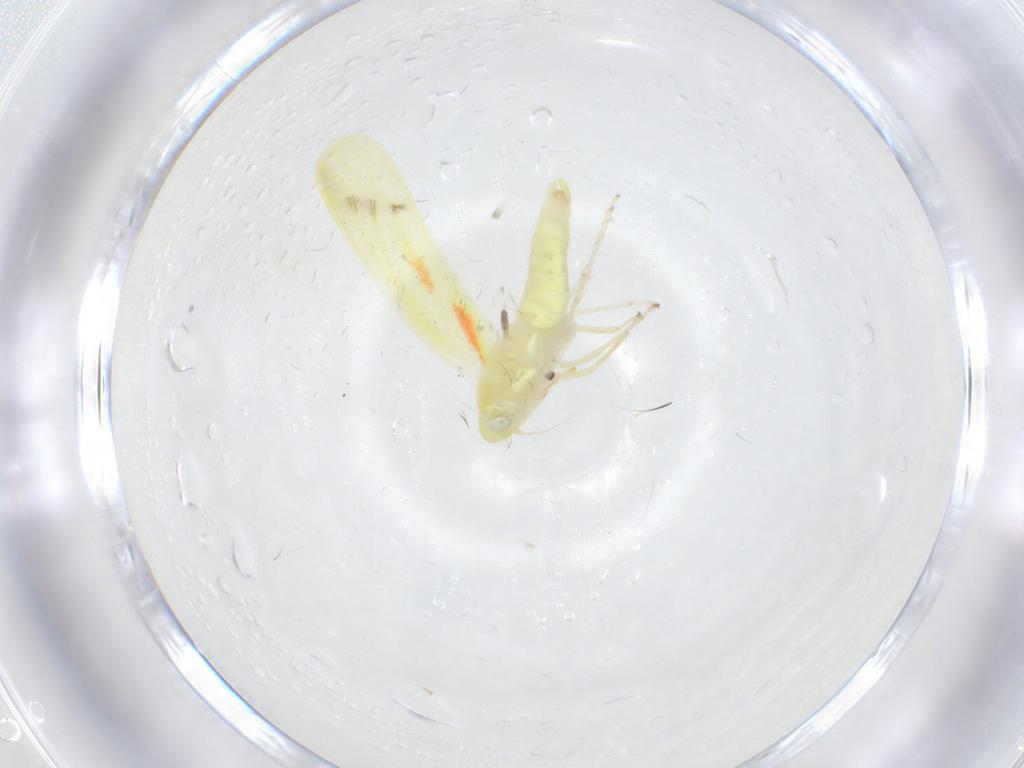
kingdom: Animalia
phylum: Arthropoda
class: Insecta
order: Hemiptera
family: Cicadellidae
